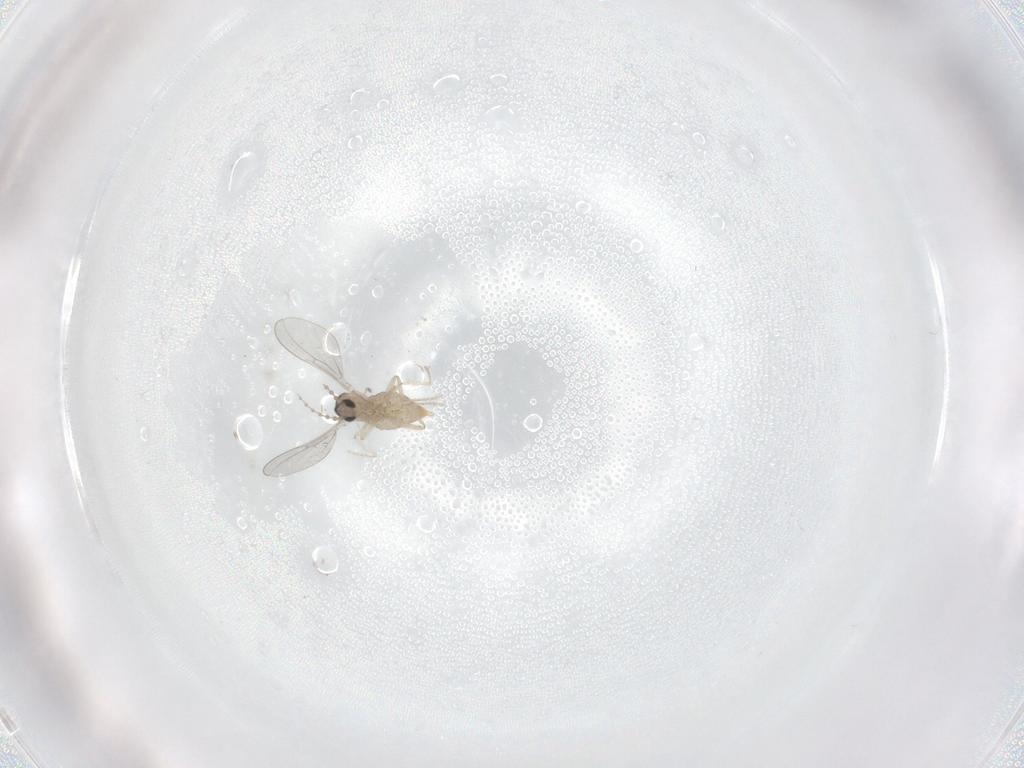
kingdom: Animalia
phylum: Arthropoda
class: Insecta
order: Diptera
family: Cecidomyiidae
